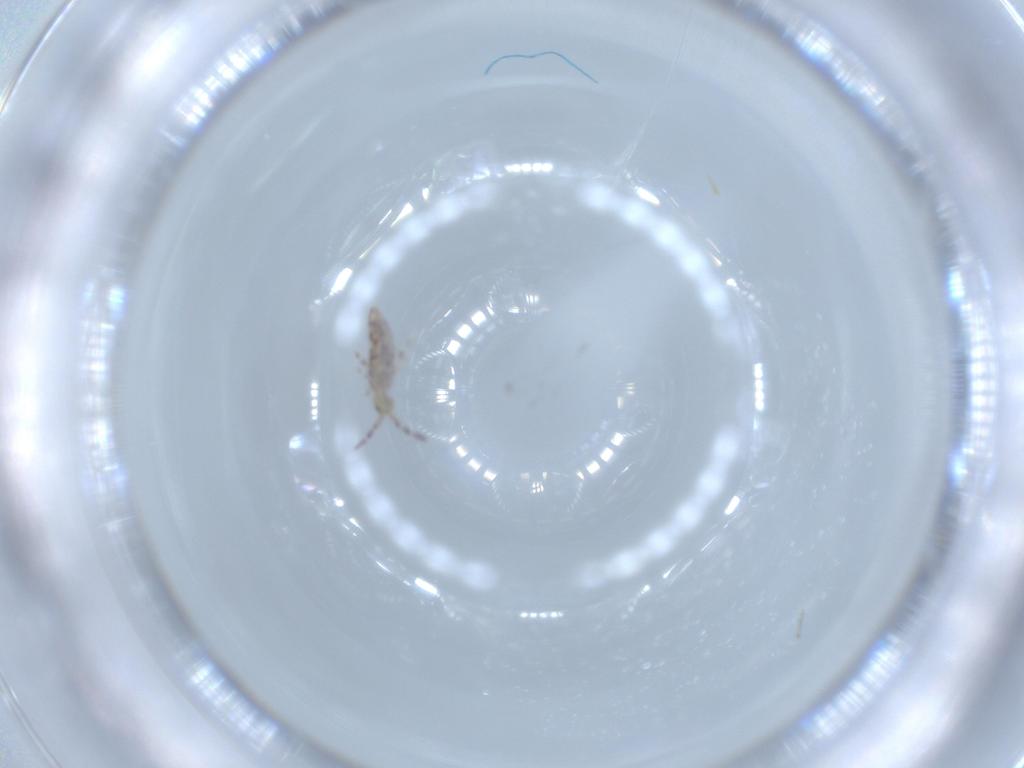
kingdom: Animalia
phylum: Arthropoda
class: Collembola
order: Entomobryomorpha
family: Entomobryidae
